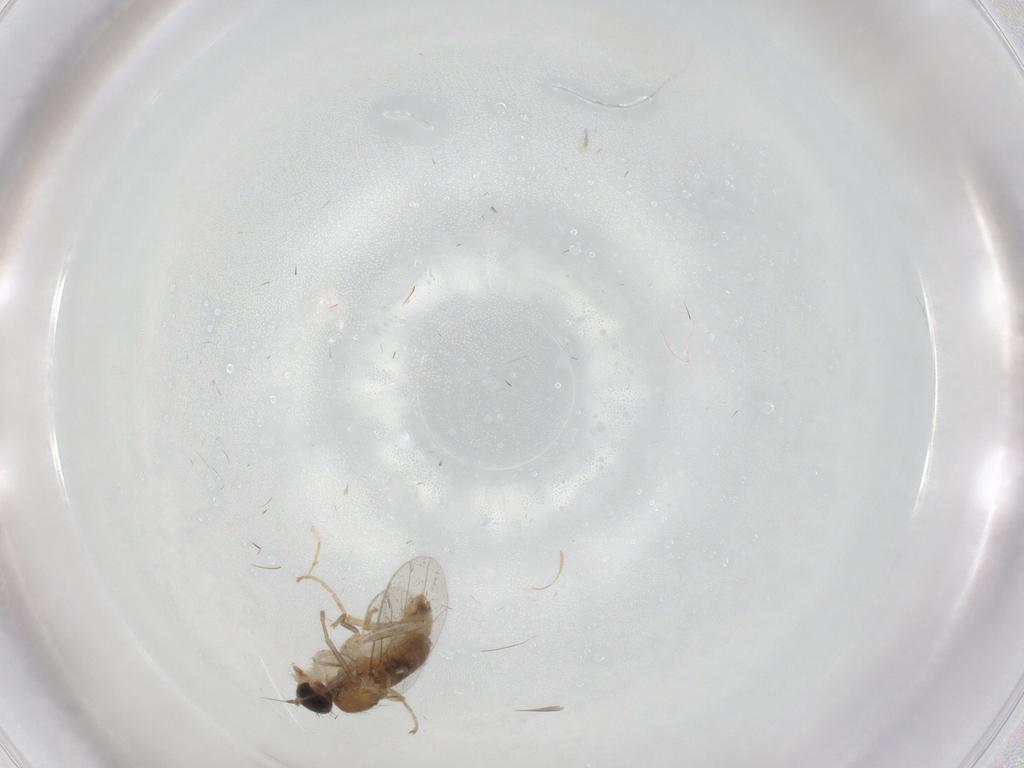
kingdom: Animalia
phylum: Arthropoda
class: Insecta
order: Diptera
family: Hybotidae
